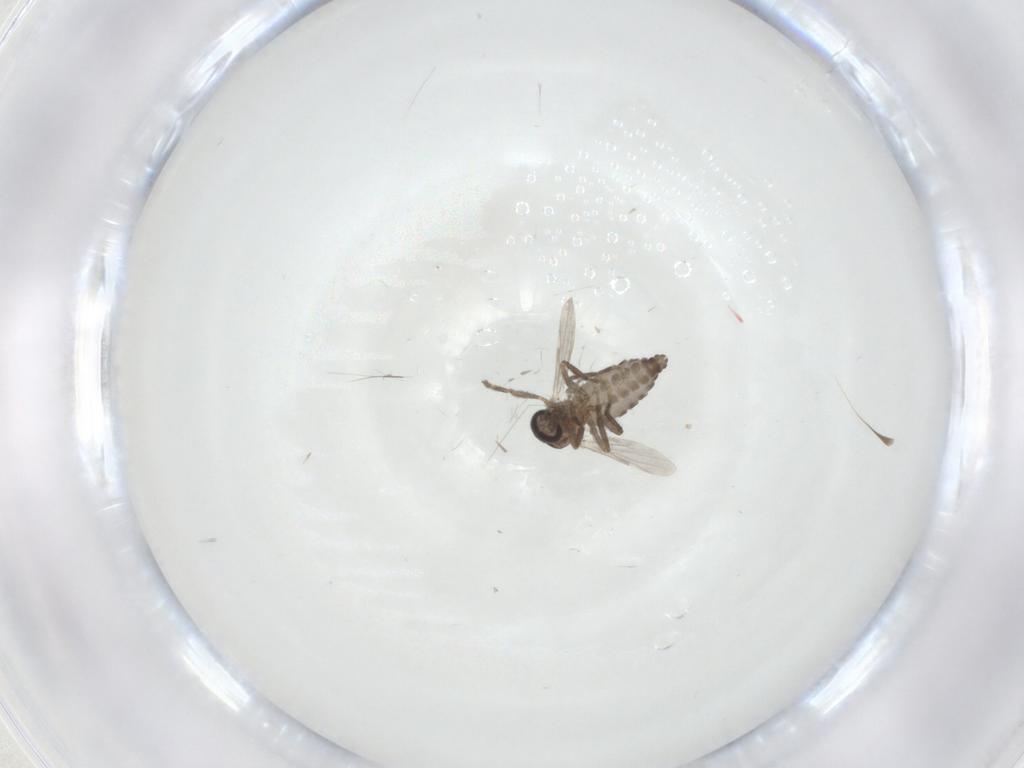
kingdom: Animalia
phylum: Arthropoda
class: Insecta
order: Diptera
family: Ceratopogonidae
